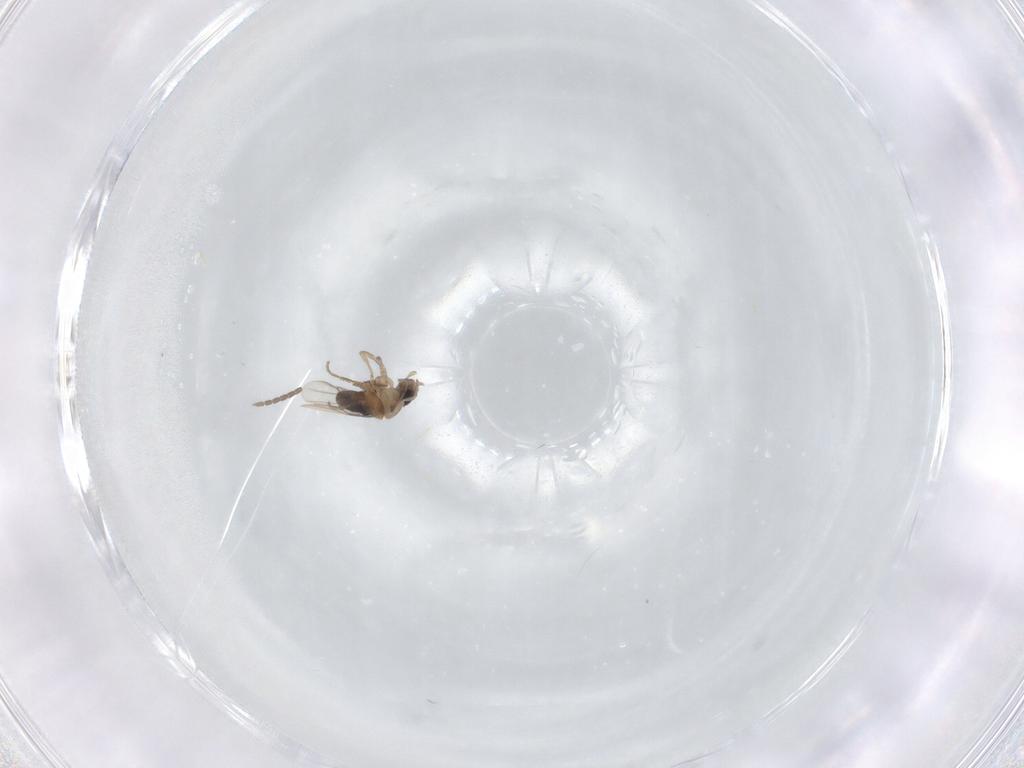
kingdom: Animalia
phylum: Arthropoda
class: Insecta
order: Diptera
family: Sciaridae
